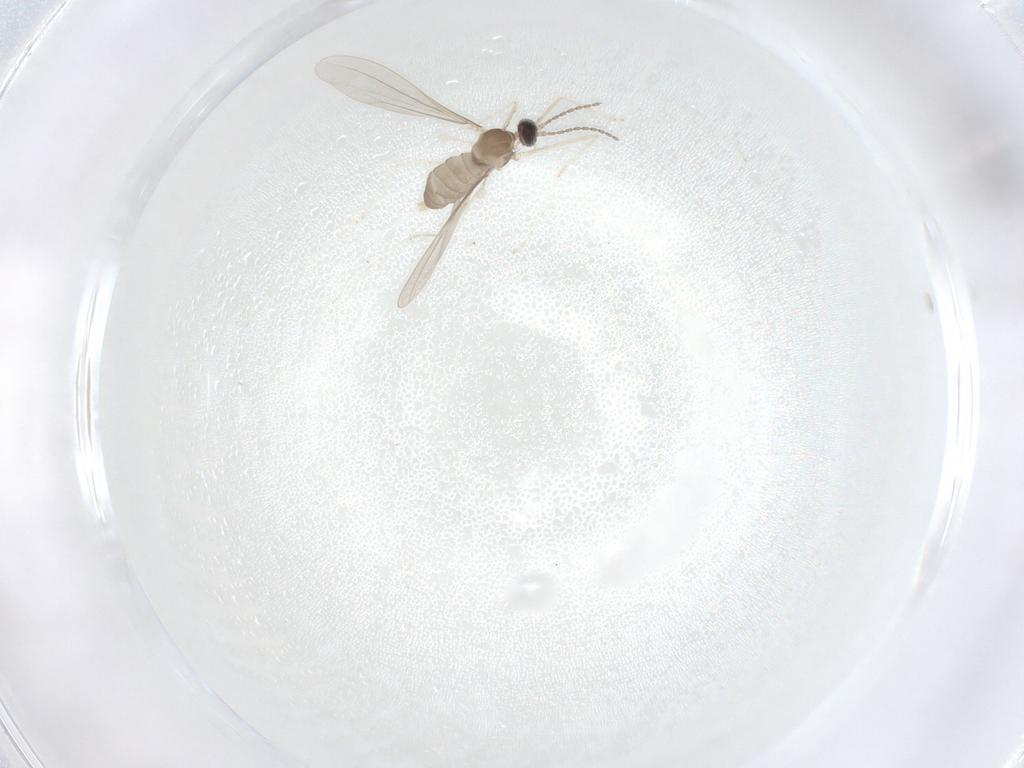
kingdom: Animalia
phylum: Arthropoda
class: Insecta
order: Diptera
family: Cecidomyiidae
